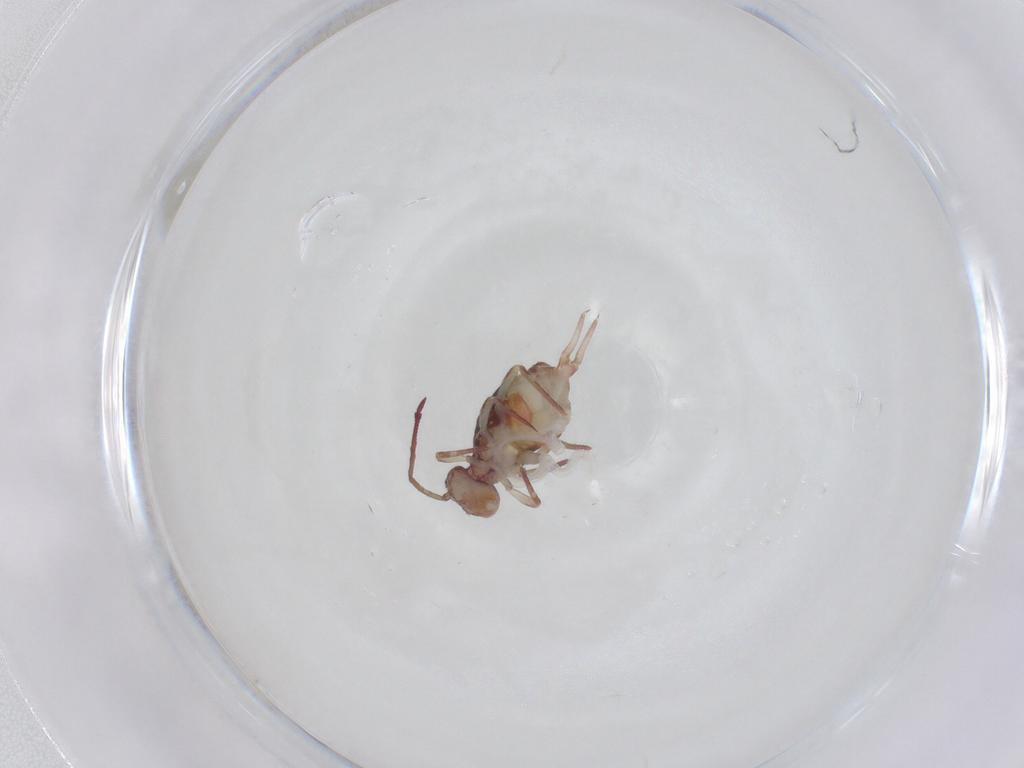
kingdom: Animalia
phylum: Arthropoda
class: Collembola
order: Symphypleona
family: Dicyrtomidae
